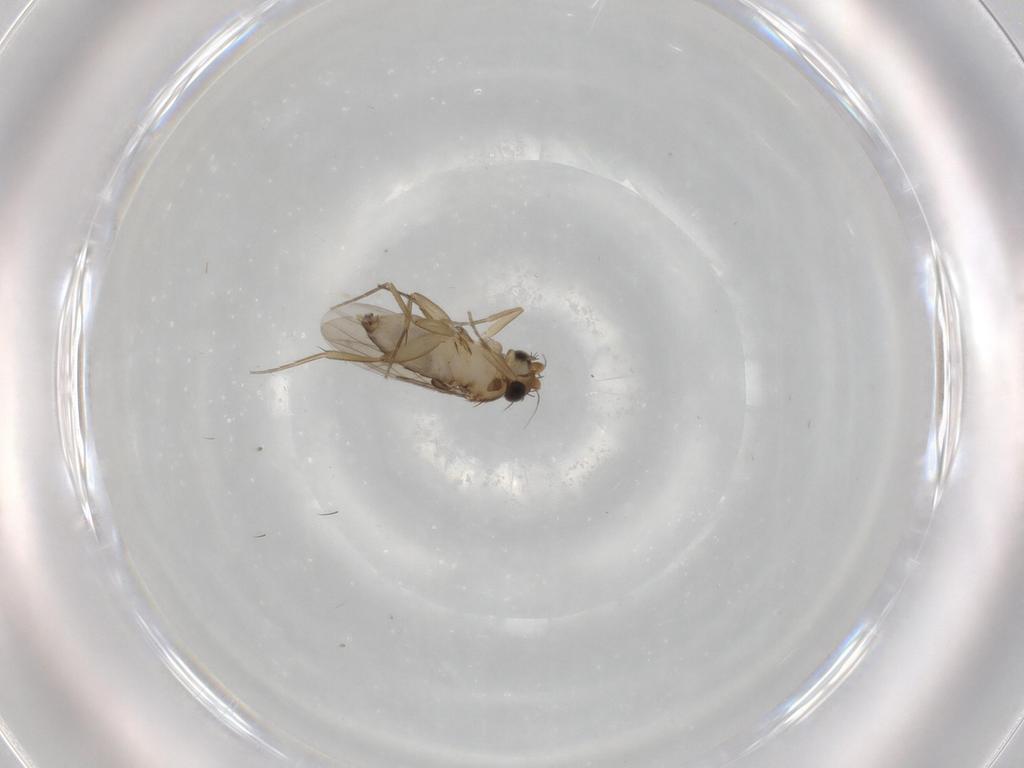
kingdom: Animalia
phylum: Arthropoda
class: Insecta
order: Diptera
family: Phoridae
